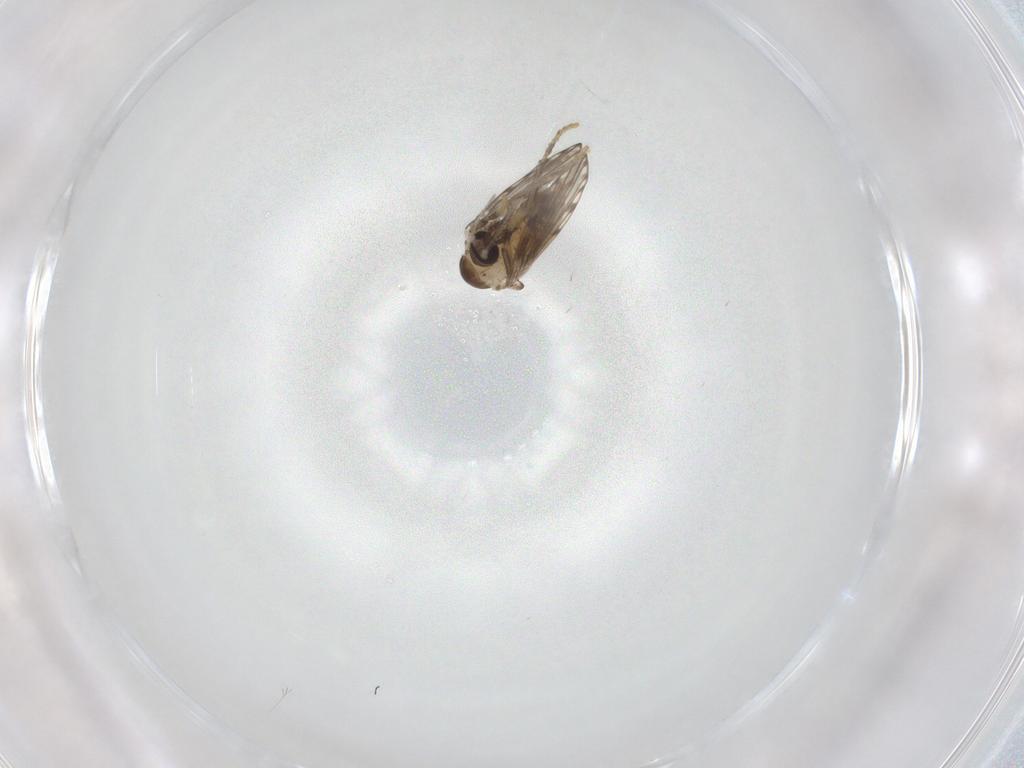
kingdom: Animalia
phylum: Arthropoda
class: Insecta
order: Diptera
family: Psychodidae
